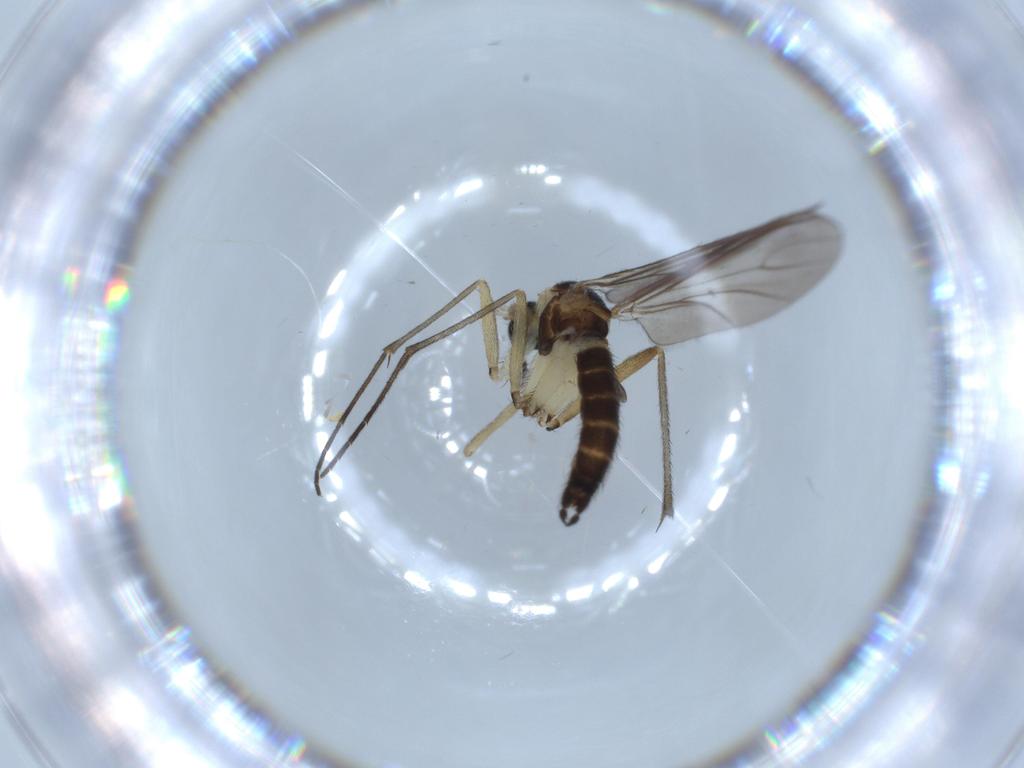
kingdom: Animalia
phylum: Arthropoda
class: Insecta
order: Diptera
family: Sciaridae
